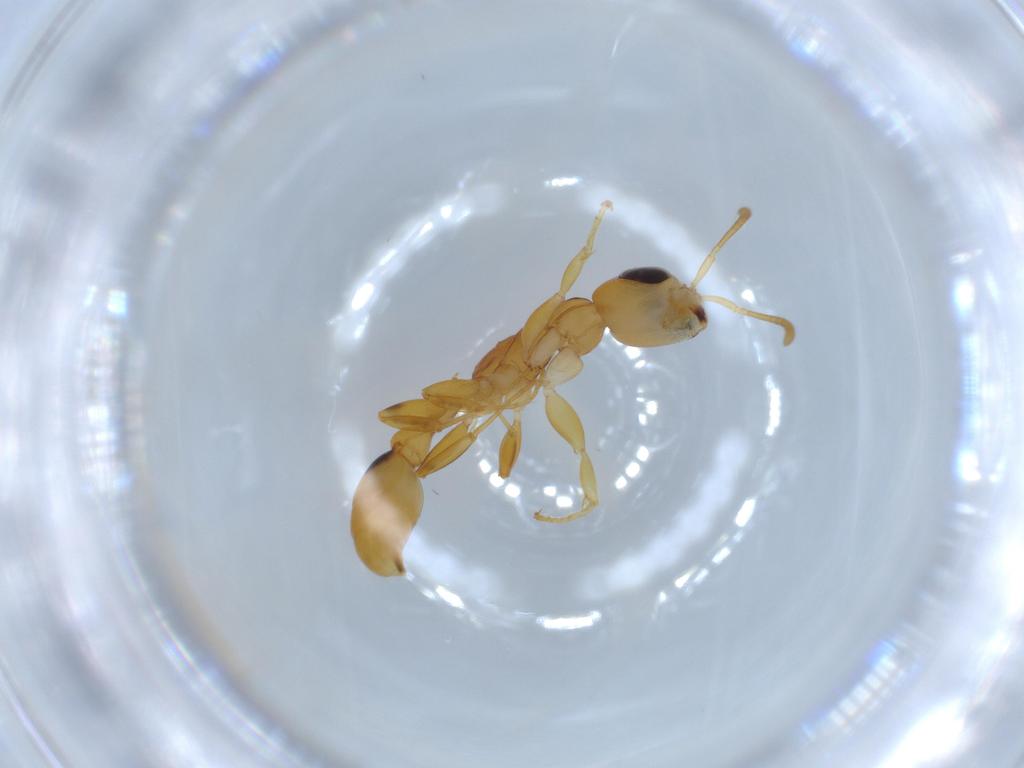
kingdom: Animalia
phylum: Arthropoda
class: Insecta
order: Hymenoptera
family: Formicidae
